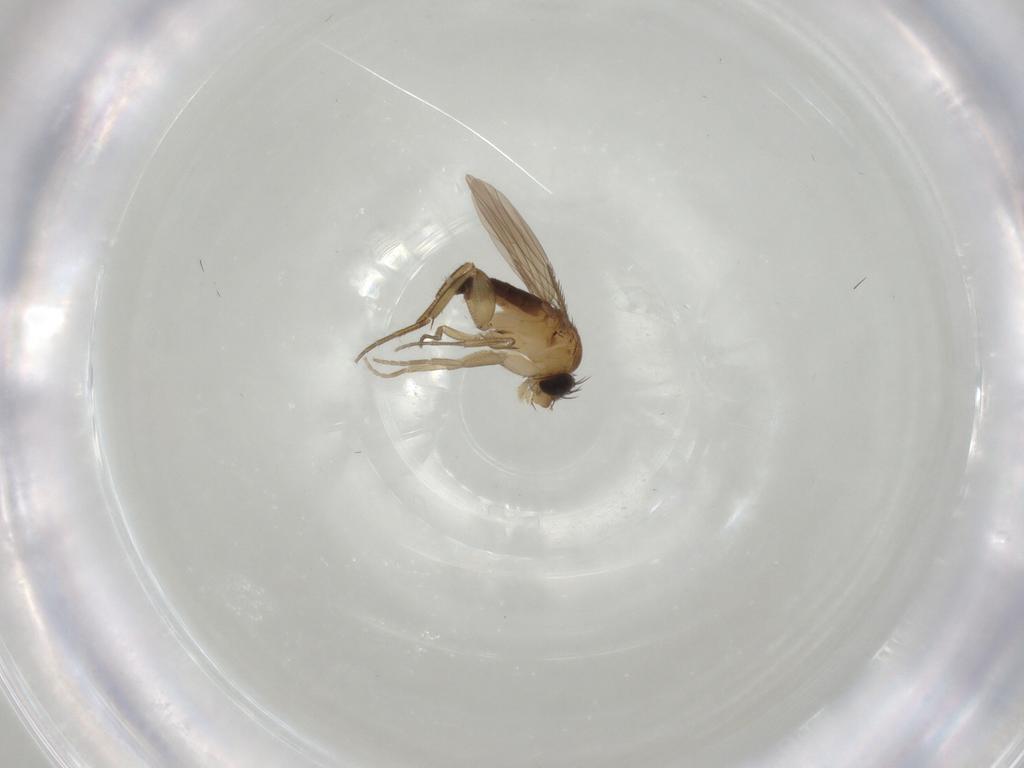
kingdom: Animalia
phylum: Arthropoda
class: Insecta
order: Diptera
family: Phoridae
